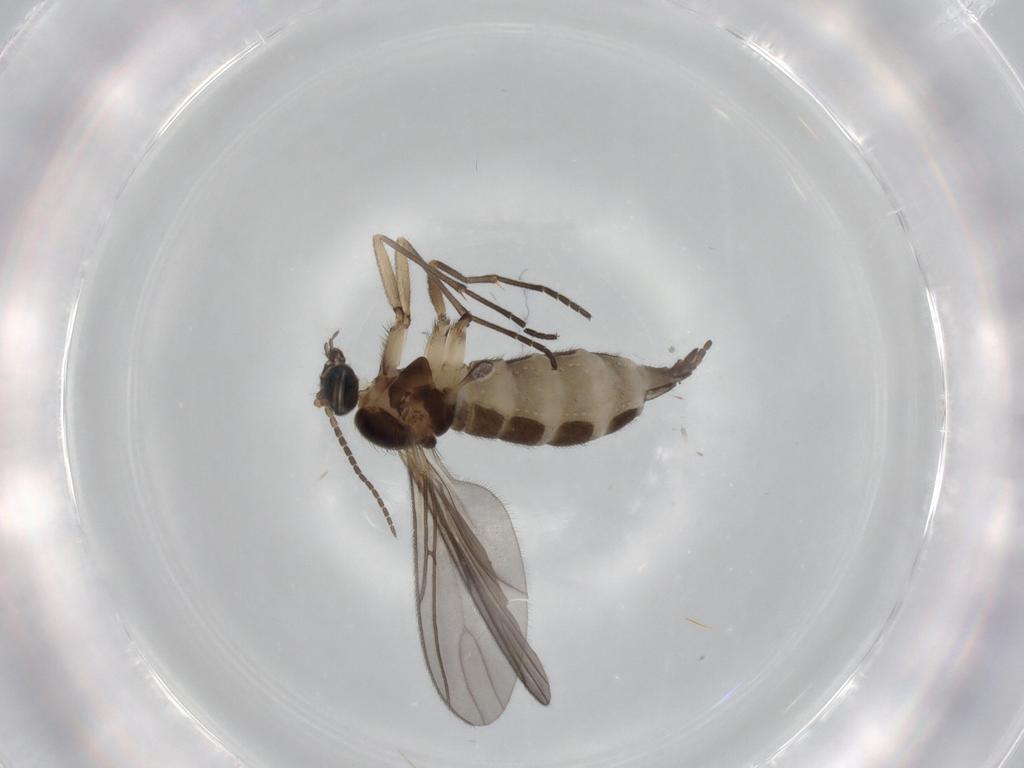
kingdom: Animalia
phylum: Arthropoda
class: Insecta
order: Diptera
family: Sciaridae
